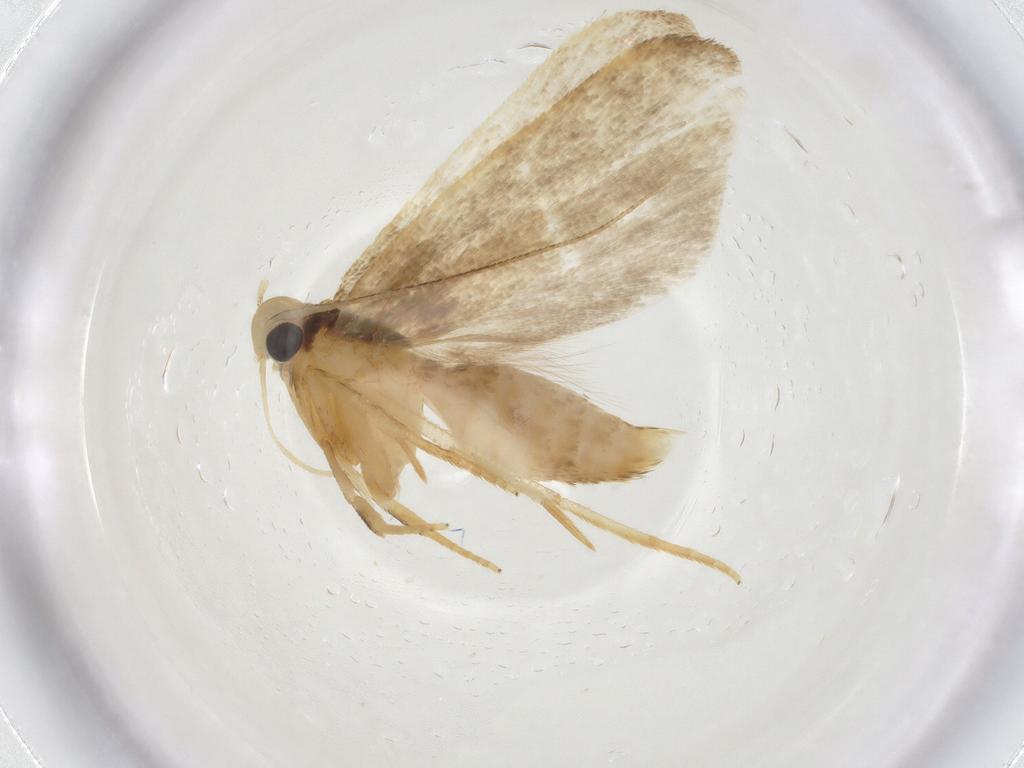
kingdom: Animalia
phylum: Arthropoda
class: Insecta
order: Lepidoptera
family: Gelechiidae
